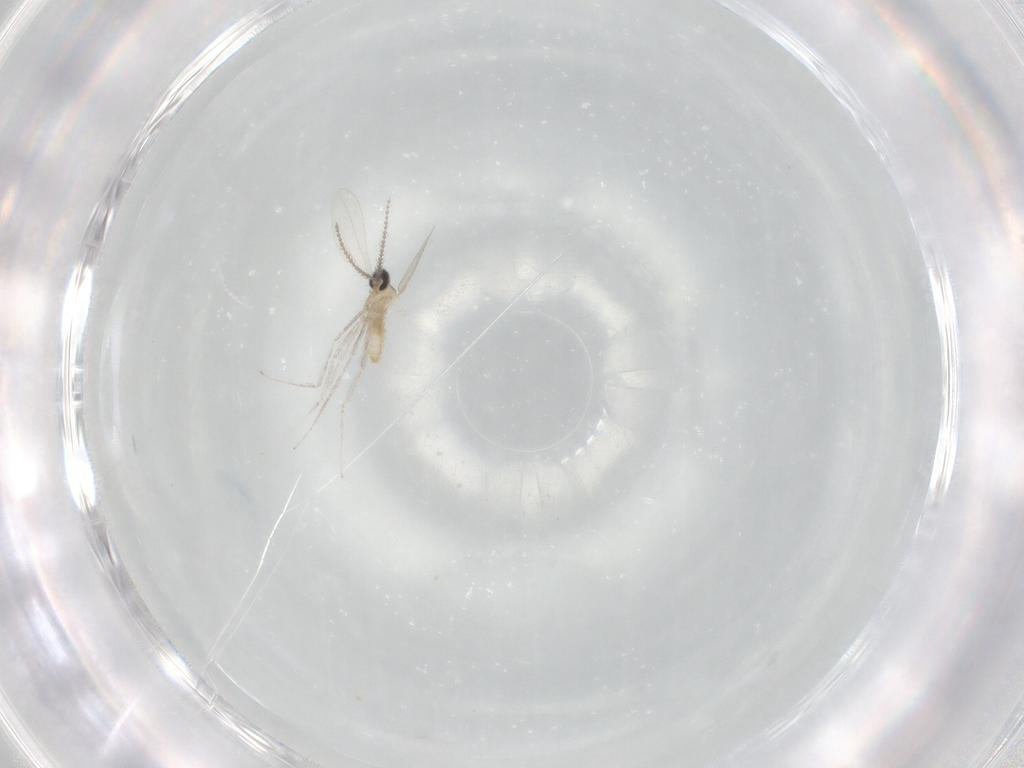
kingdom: Animalia
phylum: Arthropoda
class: Insecta
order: Diptera
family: Cecidomyiidae
